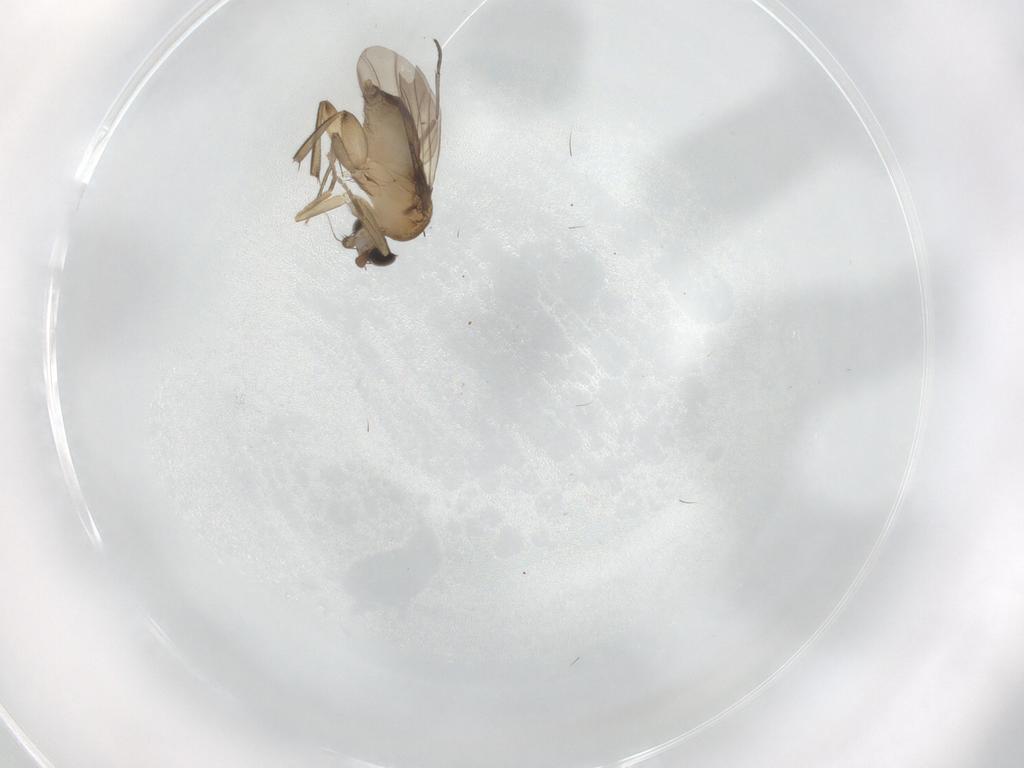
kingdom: Animalia
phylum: Arthropoda
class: Insecta
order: Diptera
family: Phoridae
